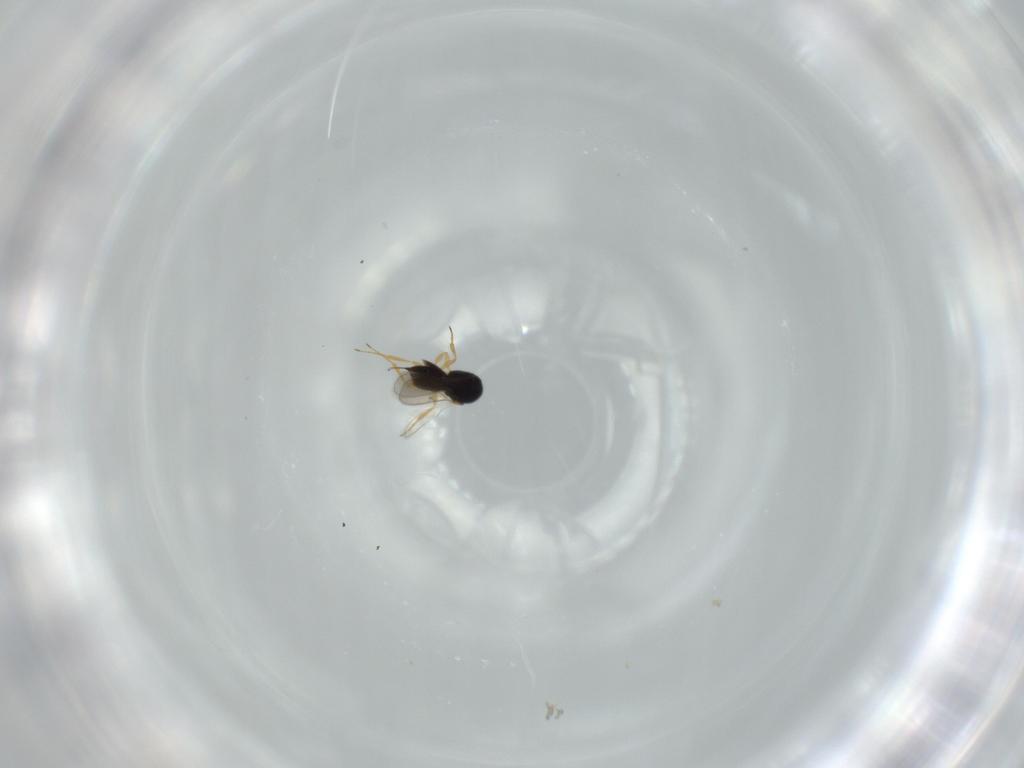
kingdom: Animalia
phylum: Arthropoda
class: Insecta
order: Hymenoptera
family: Scelionidae
